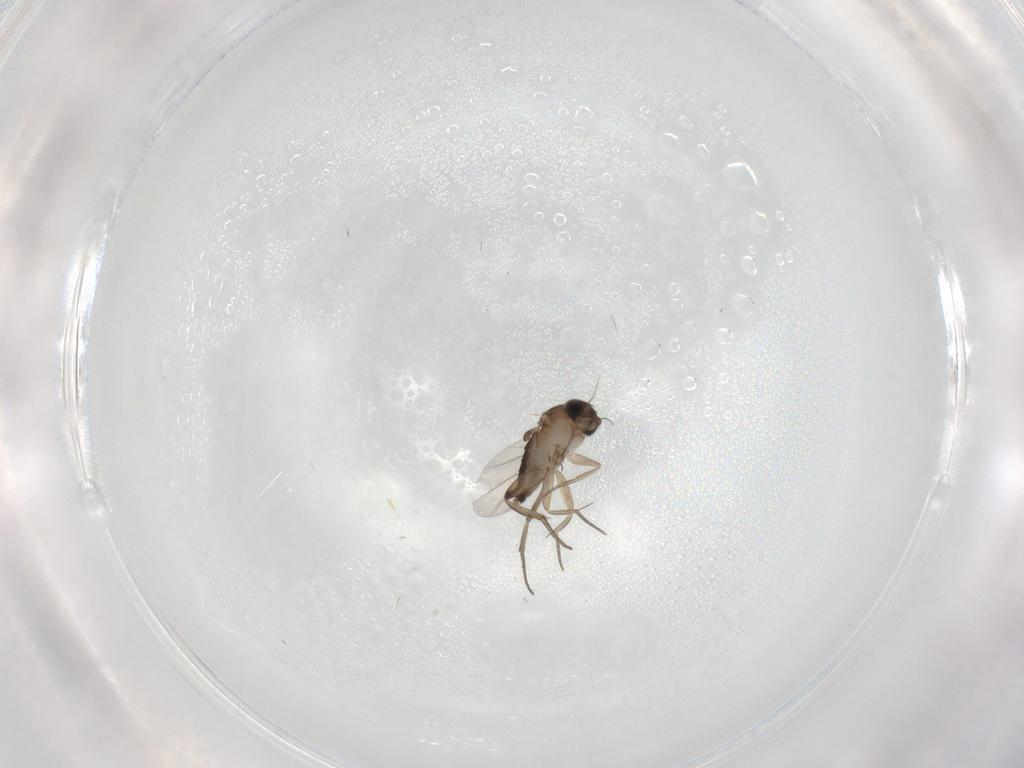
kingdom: Animalia
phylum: Arthropoda
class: Insecta
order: Diptera
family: Phoridae
